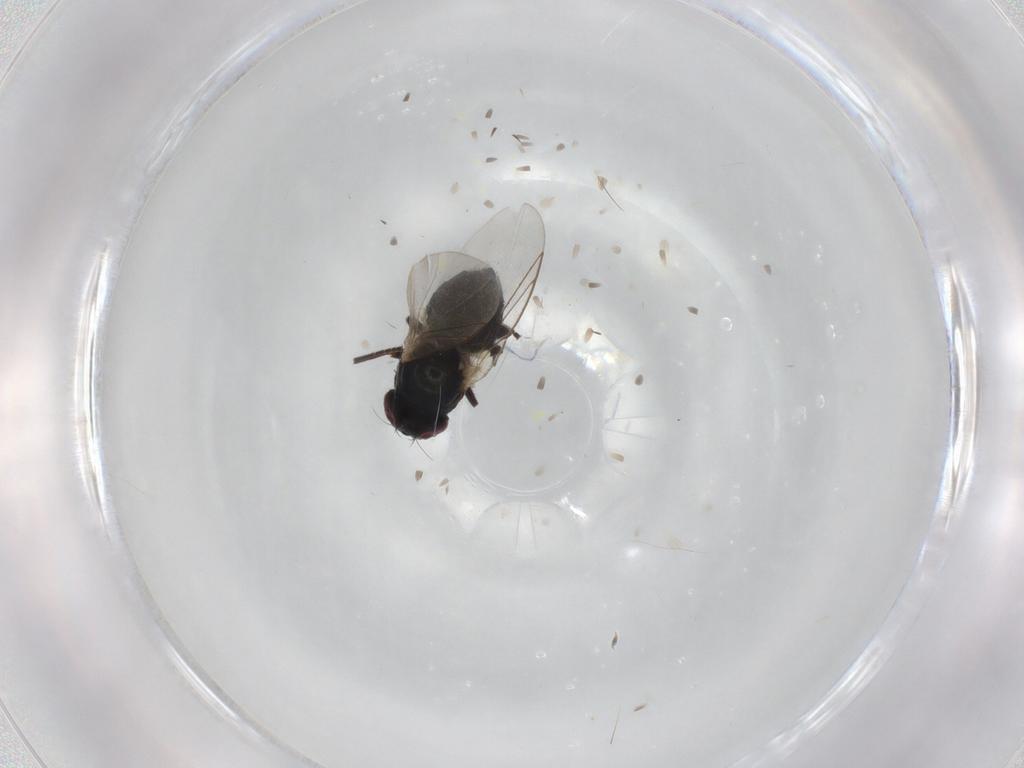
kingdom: Animalia
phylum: Arthropoda
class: Insecta
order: Diptera
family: Agromyzidae
